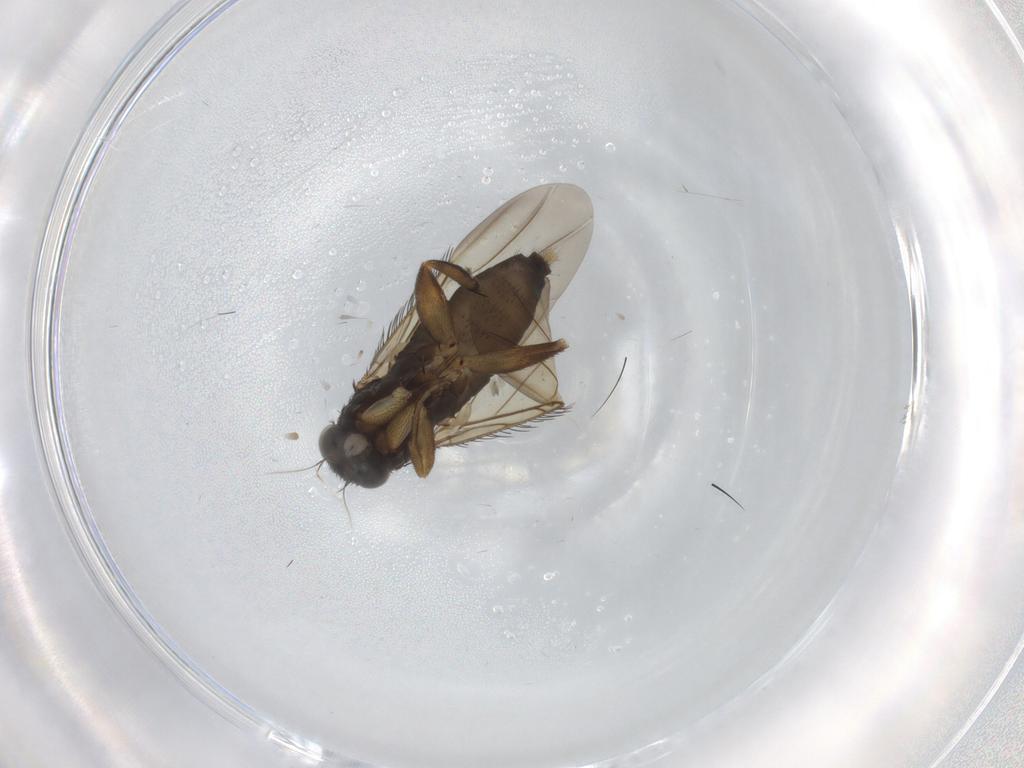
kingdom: Animalia
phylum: Arthropoda
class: Insecta
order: Diptera
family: Phoridae
